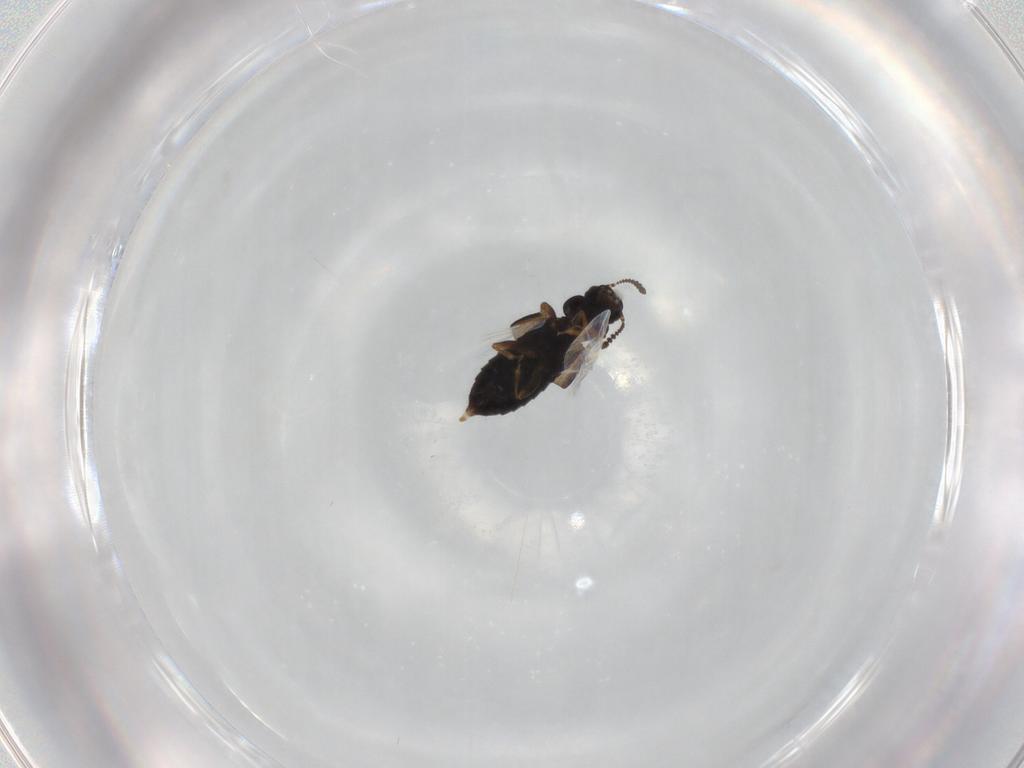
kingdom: Animalia
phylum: Arthropoda
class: Insecta
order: Coleoptera
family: Staphylinidae
